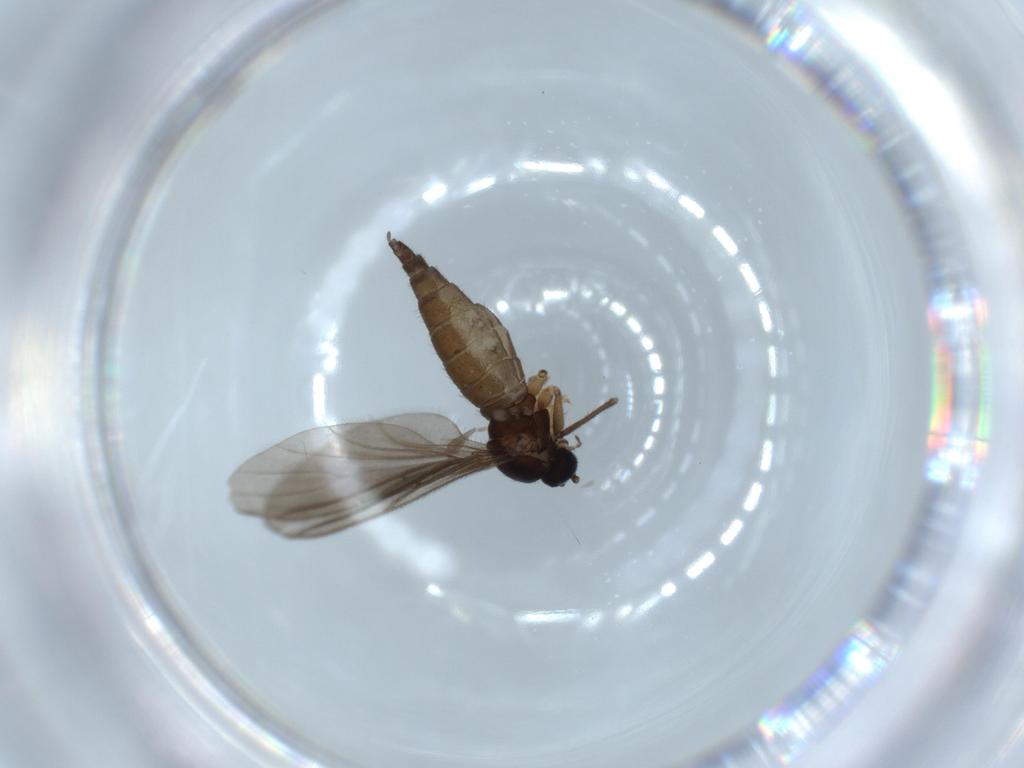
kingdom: Animalia
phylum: Arthropoda
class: Insecta
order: Diptera
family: Sciaridae
